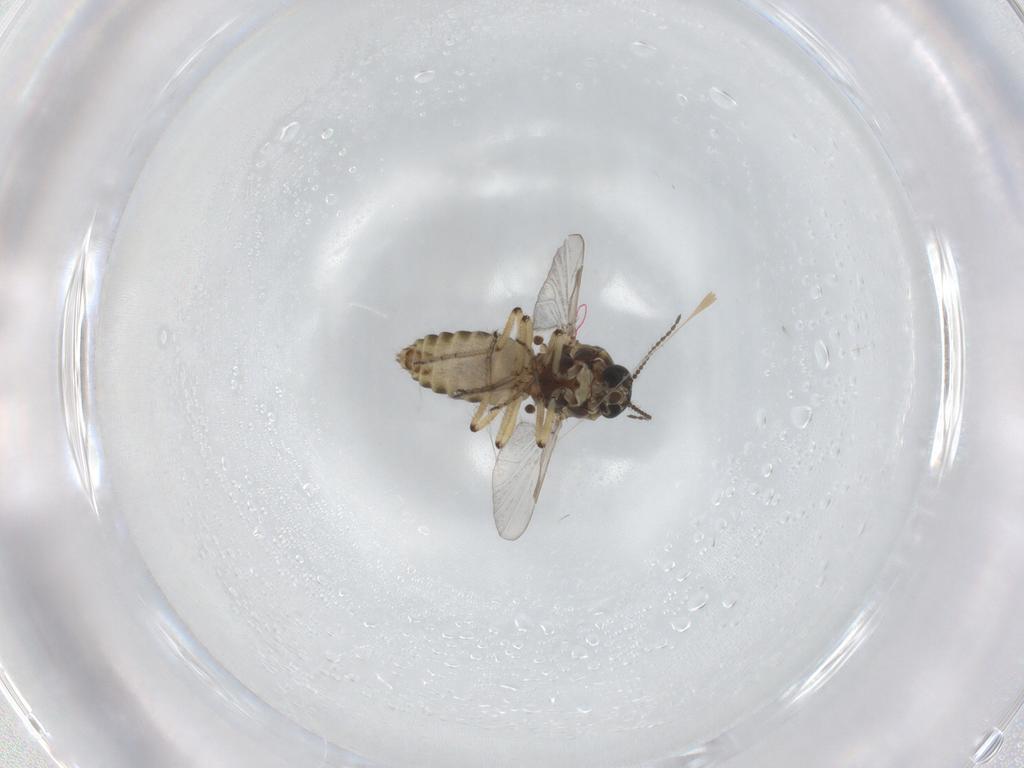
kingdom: Animalia
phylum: Arthropoda
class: Insecta
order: Diptera
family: Ceratopogonidae
